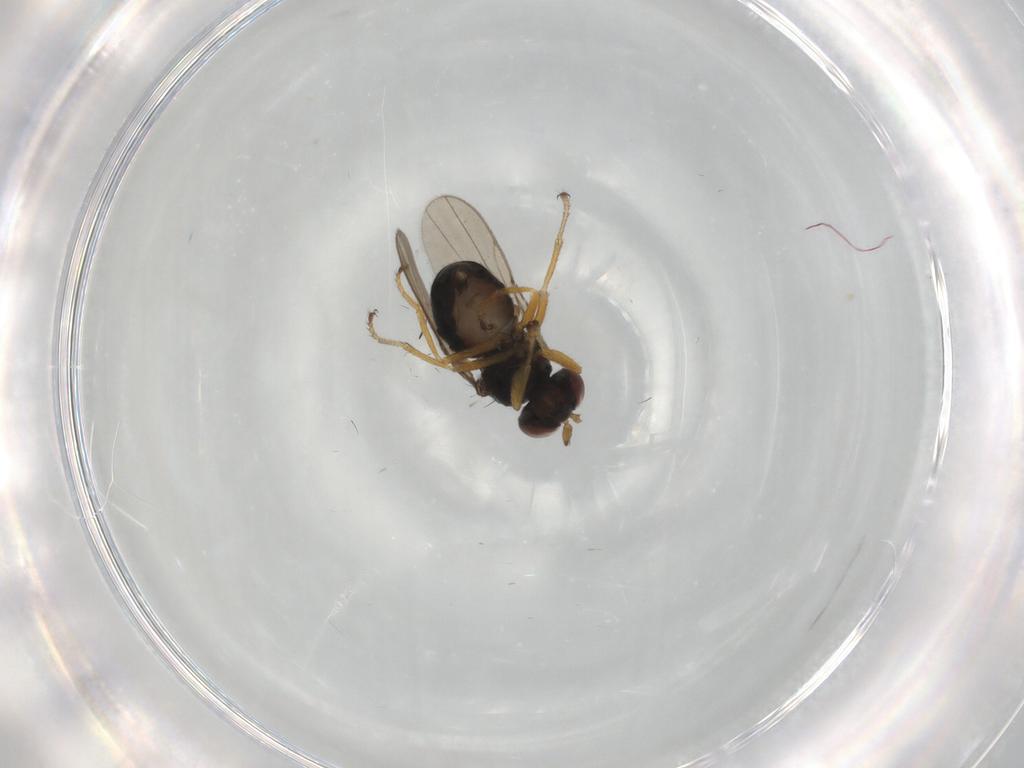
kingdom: Animalia
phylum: Arthropoda
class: Insecta
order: Diptera
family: Ephydridae
